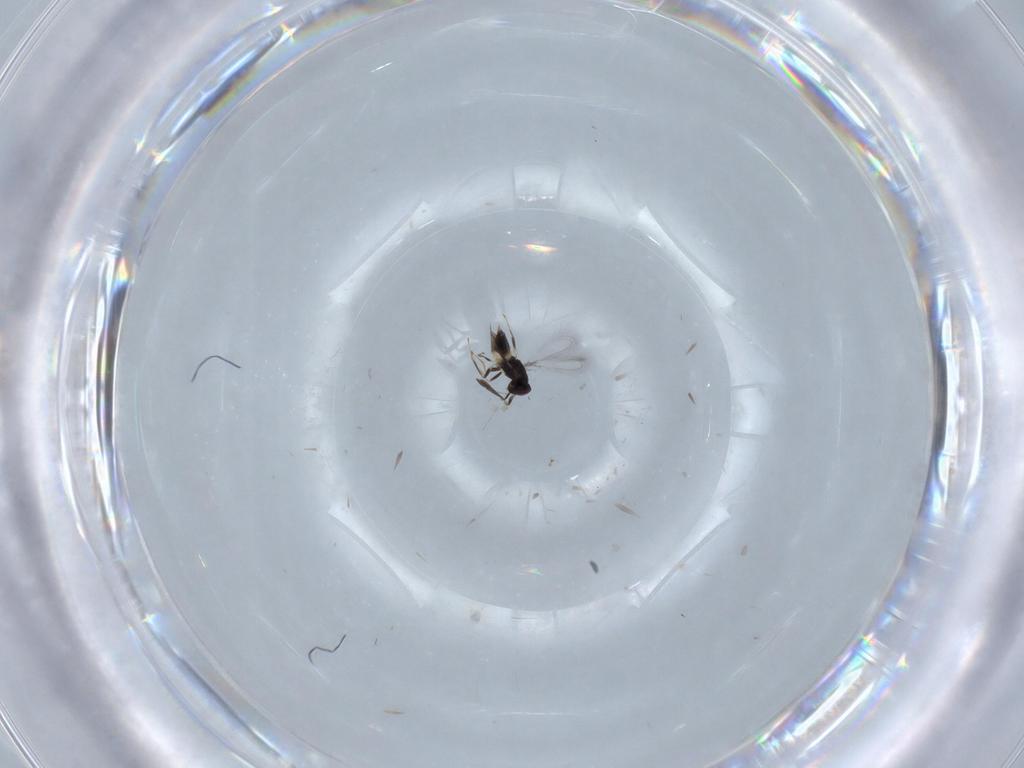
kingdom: Animalia
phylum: Arthropoda
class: Insecta
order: Hymenoptera
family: Mymaridae
